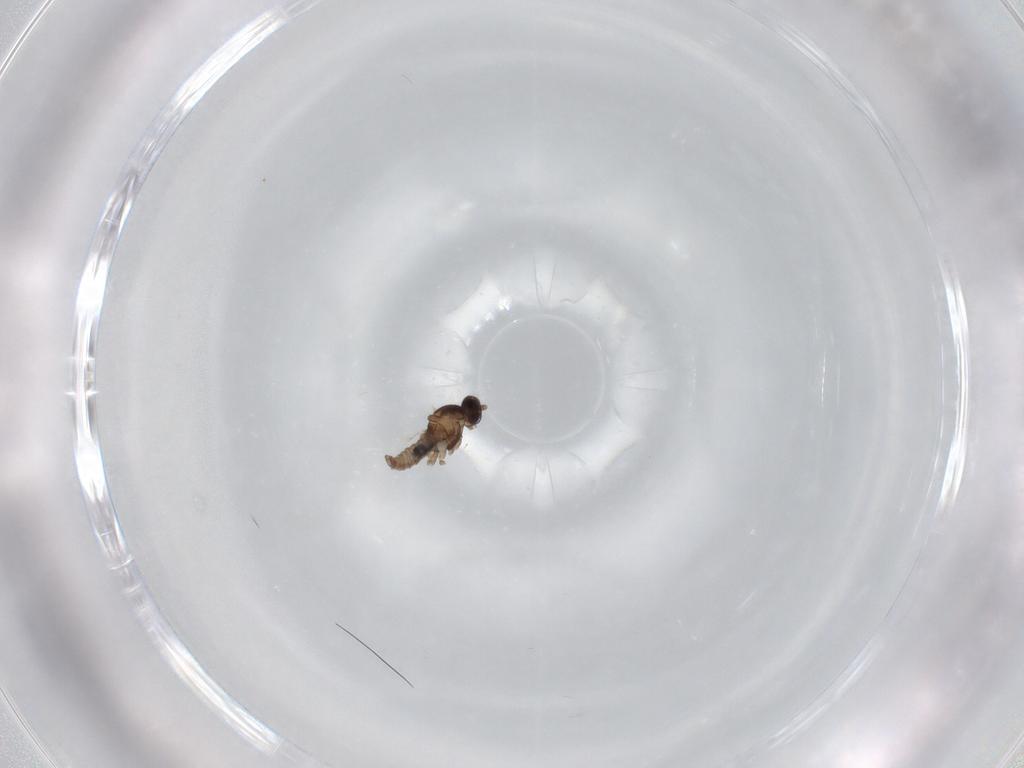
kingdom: Animalia
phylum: Arthropoda
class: Insecta
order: Diptera
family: Cecidomyiidae
